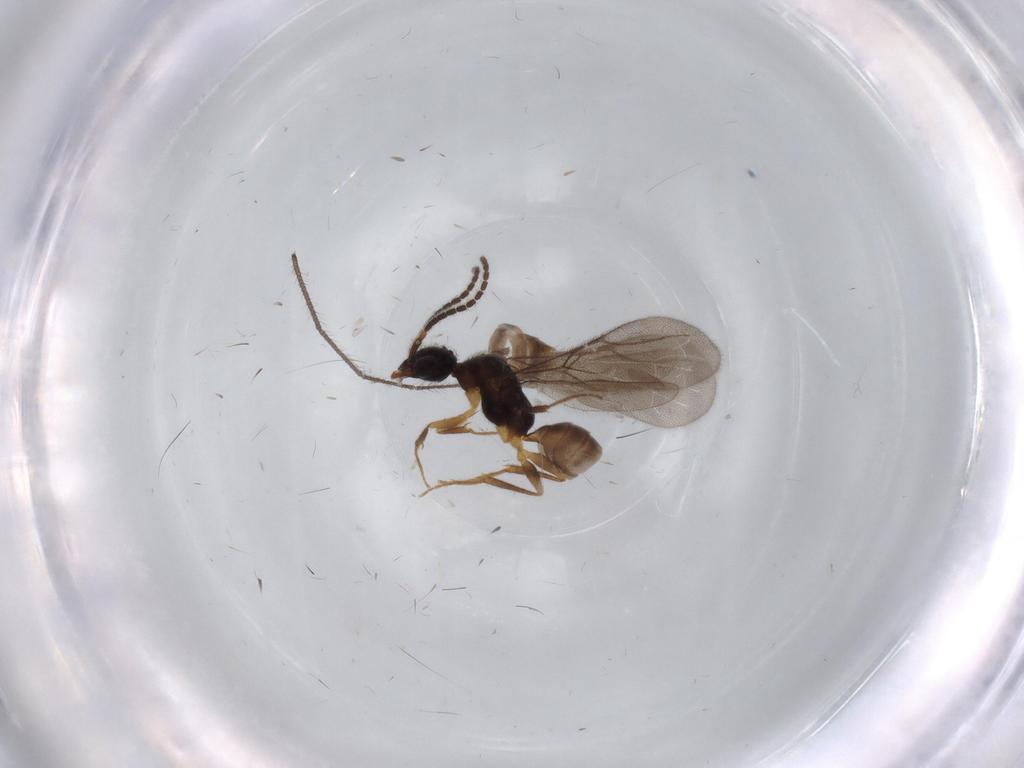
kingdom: Animalia
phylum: Arthropoda
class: Insecta
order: Hymenoptera
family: Bethylidae
